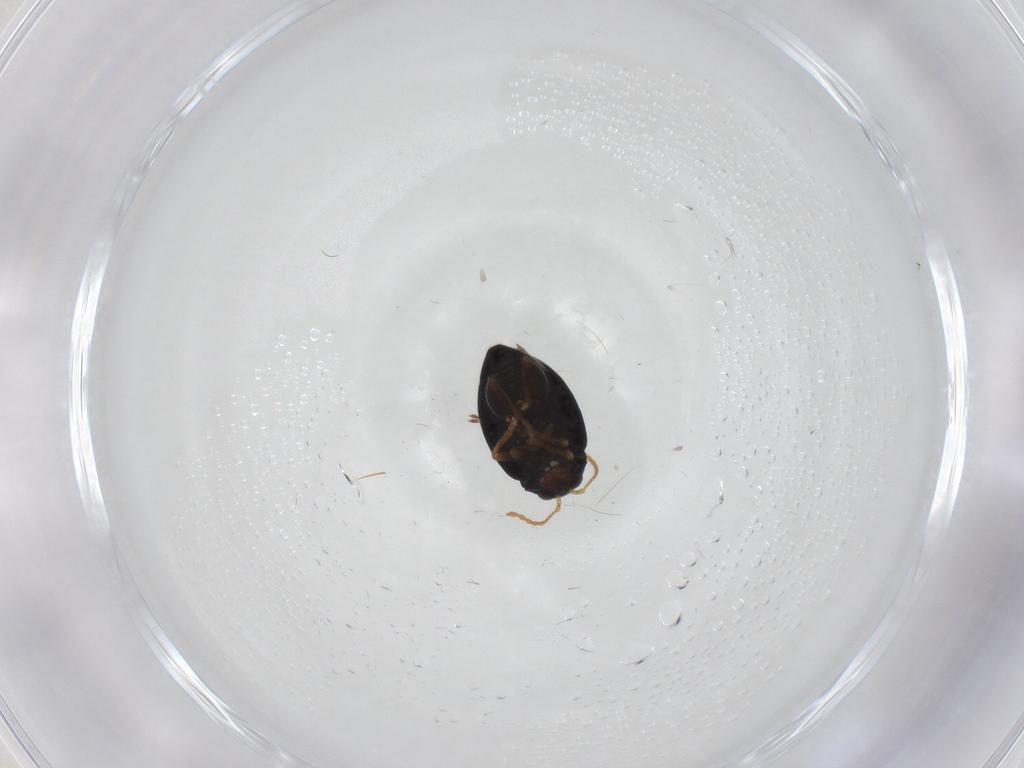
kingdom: Animalia
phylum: Arthropoda
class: Insecta
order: Coleoptera
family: Chrysomelidae
